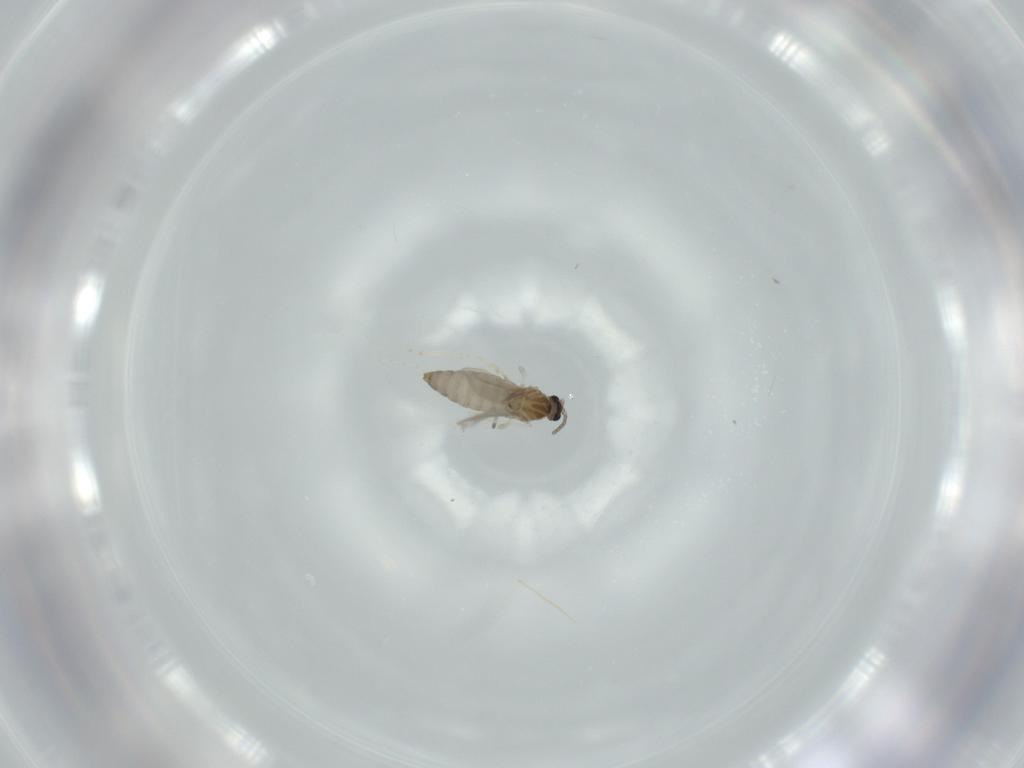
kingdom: Animalia
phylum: Arthropoda
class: Insecta
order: Diptera
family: Cecidomyiidae
